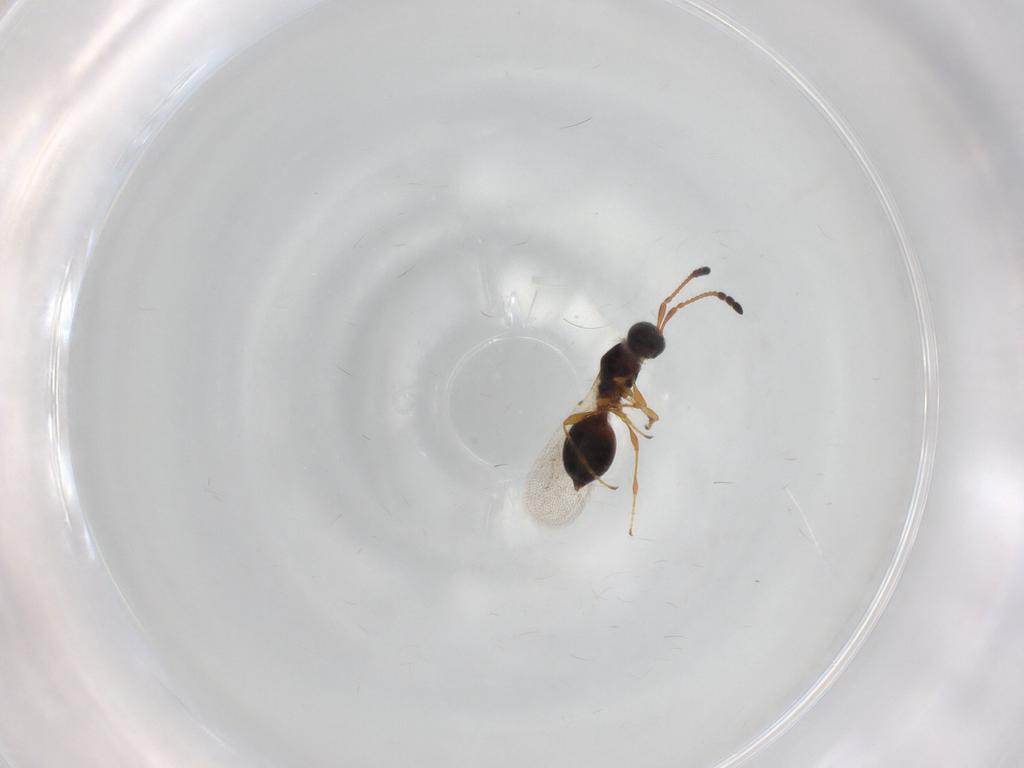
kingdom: Animalia
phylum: Arthropoda
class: Insecta
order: Hymenoptera
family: Diapriidae
